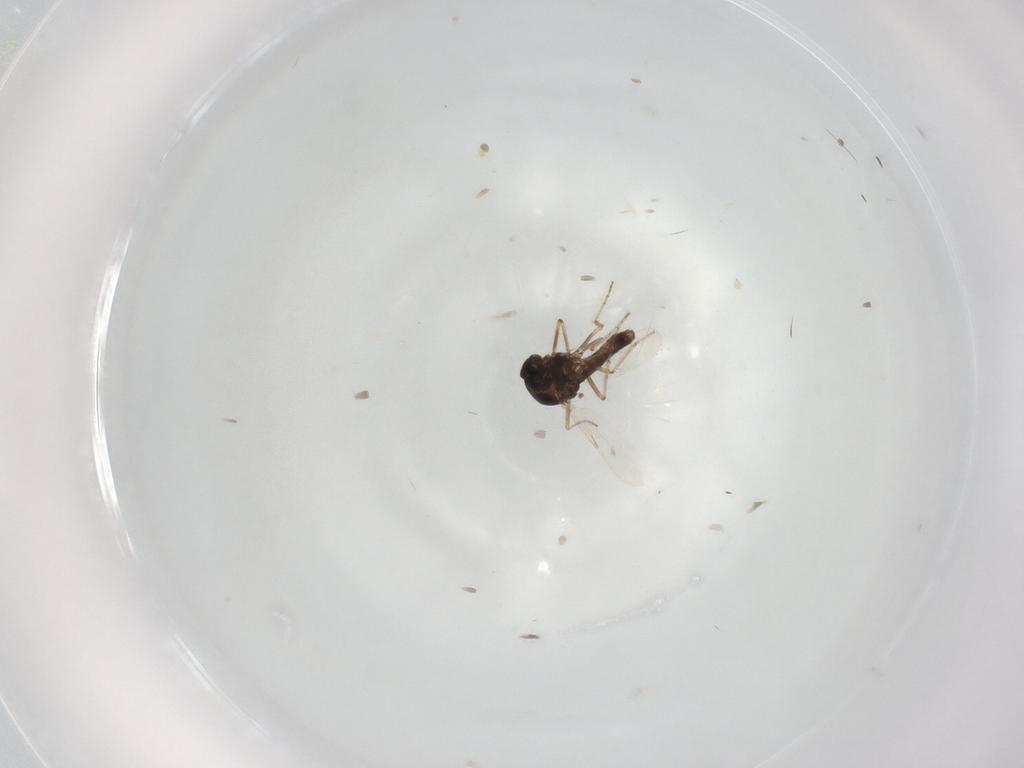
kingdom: Animalia
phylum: Arthropoda
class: Insecta
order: Diptera
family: Ceratopogonidae
